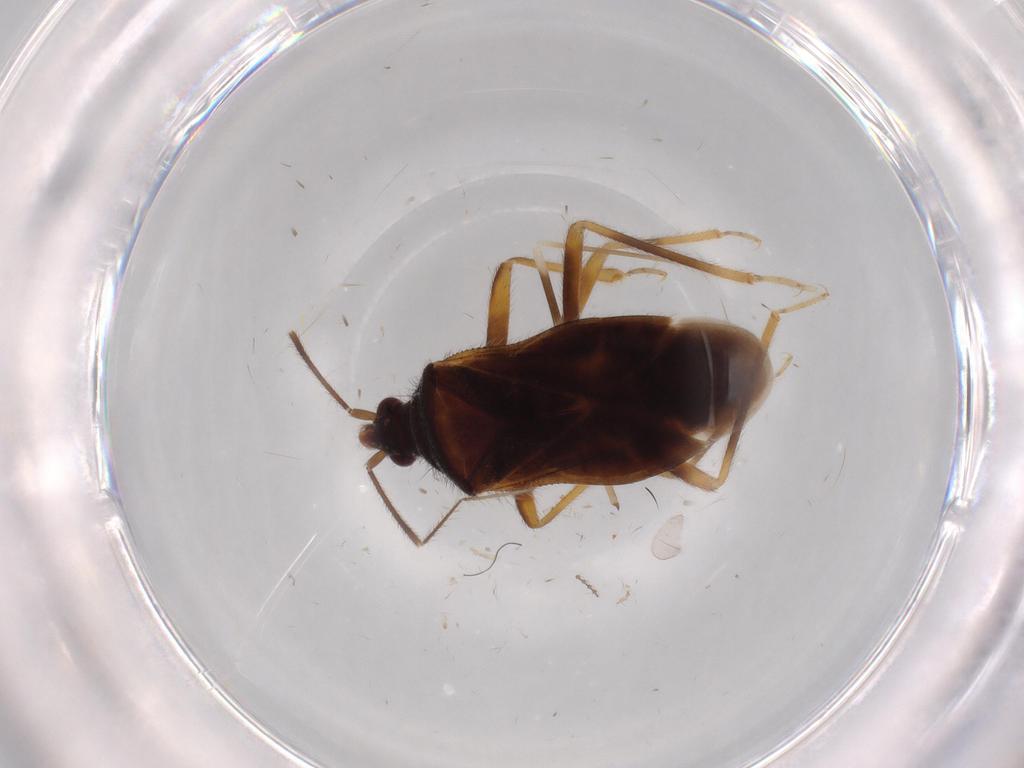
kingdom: Animalia
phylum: Arthropoda
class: Insecta
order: Hemiptera
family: Anthocoridae
